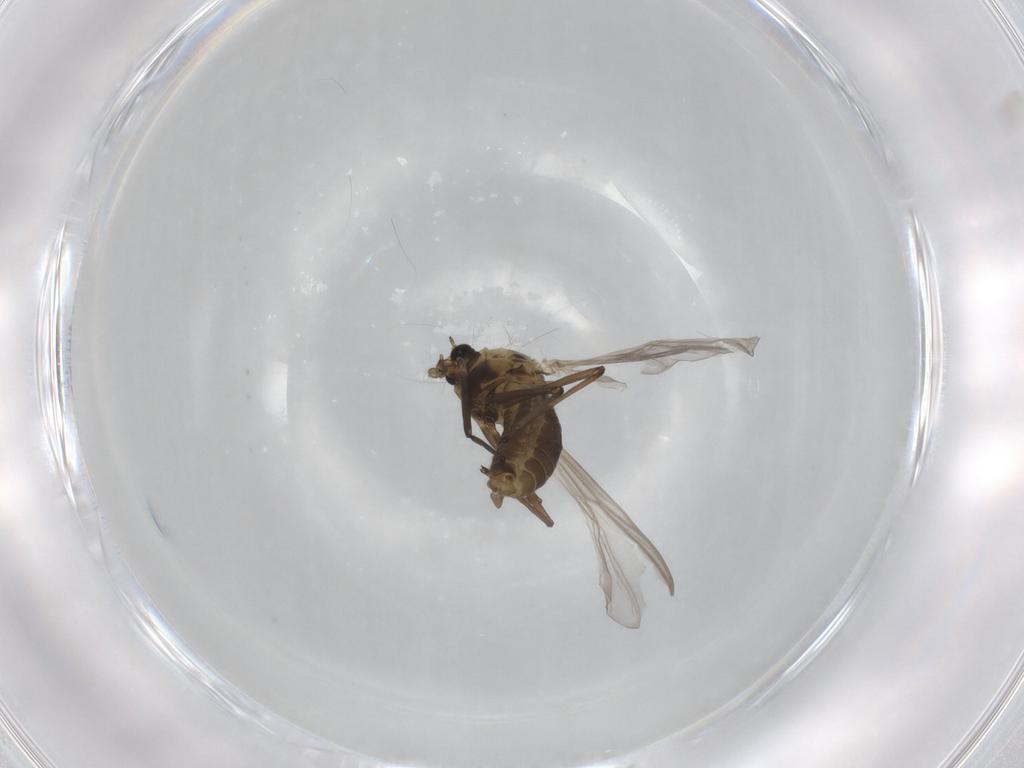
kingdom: Animalia
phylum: Arthropoda
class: Insecta
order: Diptera
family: Chironomidae
